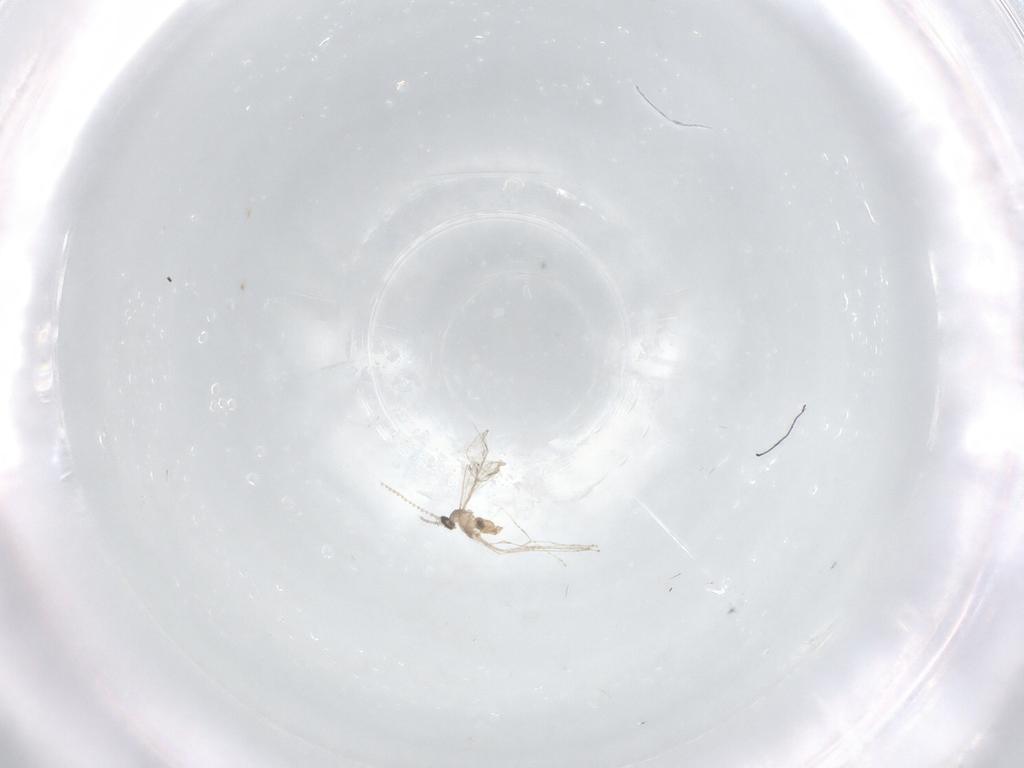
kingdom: Animalia
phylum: Arthropoda
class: Insecta
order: Diptera
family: Cecidomyiidae
